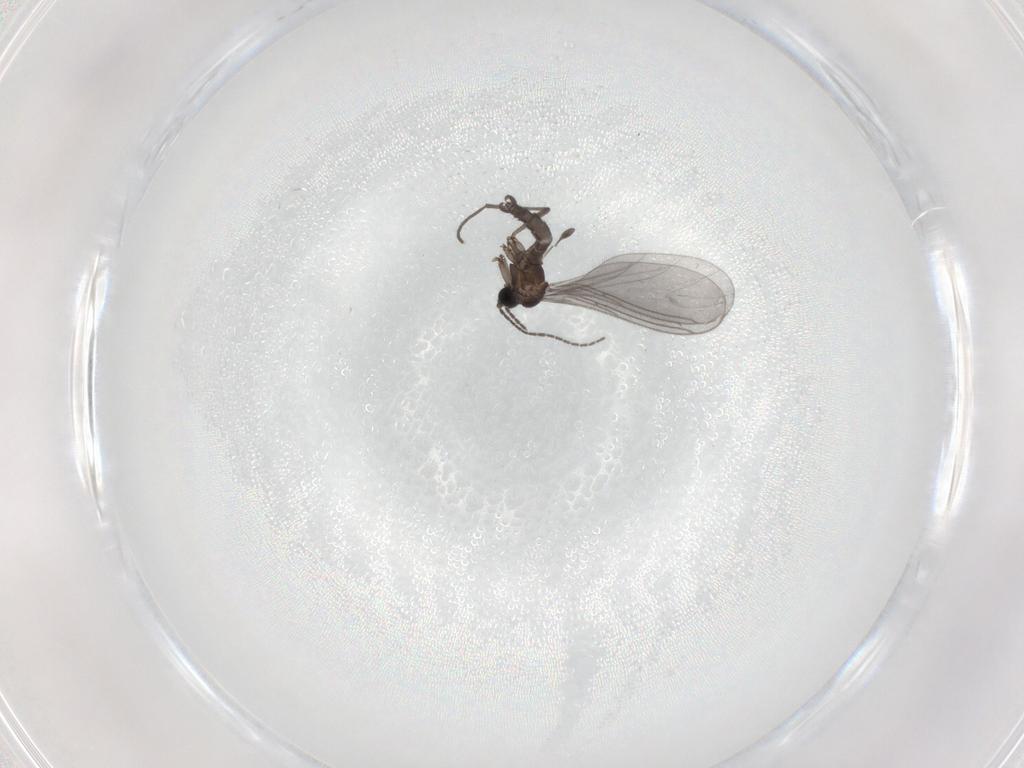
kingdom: Animalia
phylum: Arthropoda
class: Insecta
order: Diptera
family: Sciaridae
